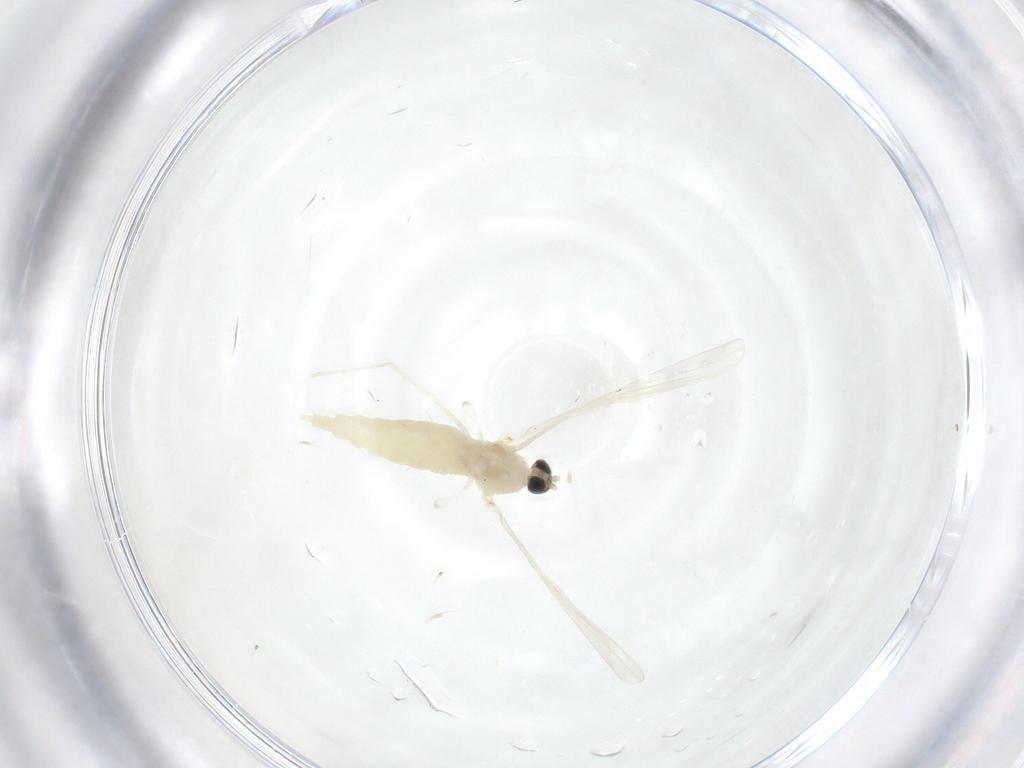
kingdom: Animalia
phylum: Arthropoda
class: Insecta
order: Diptera
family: Cecidomyiidae
